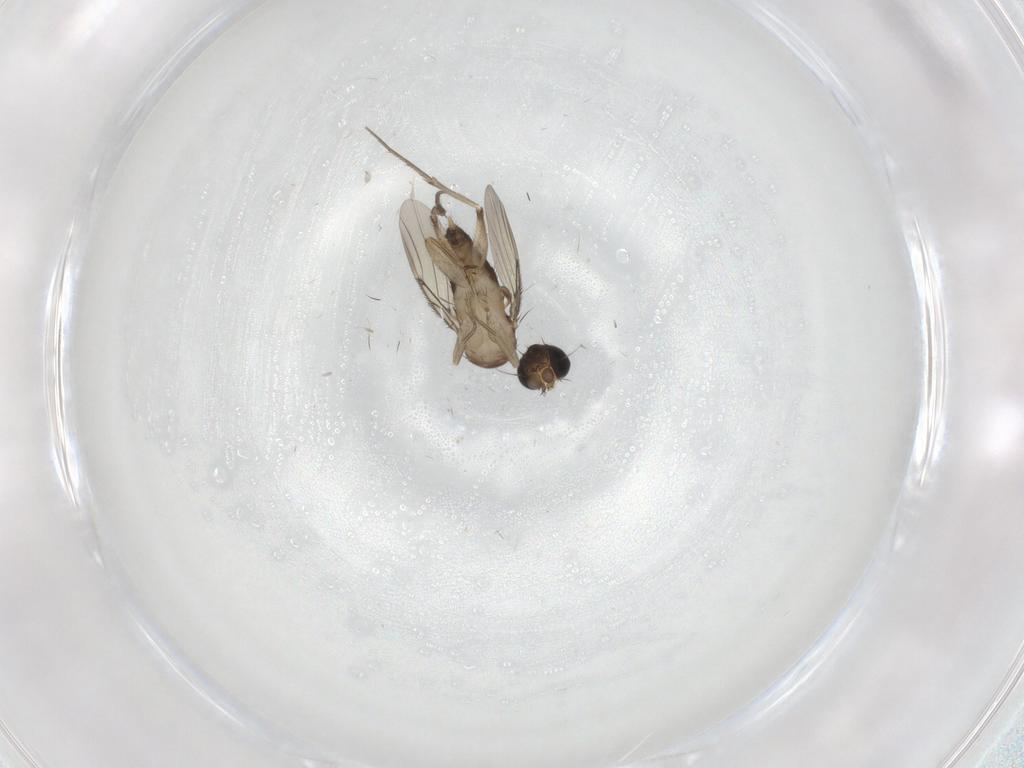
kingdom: Animalia
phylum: Arthropoda
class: Insecta
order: Diptera
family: Phoridae
